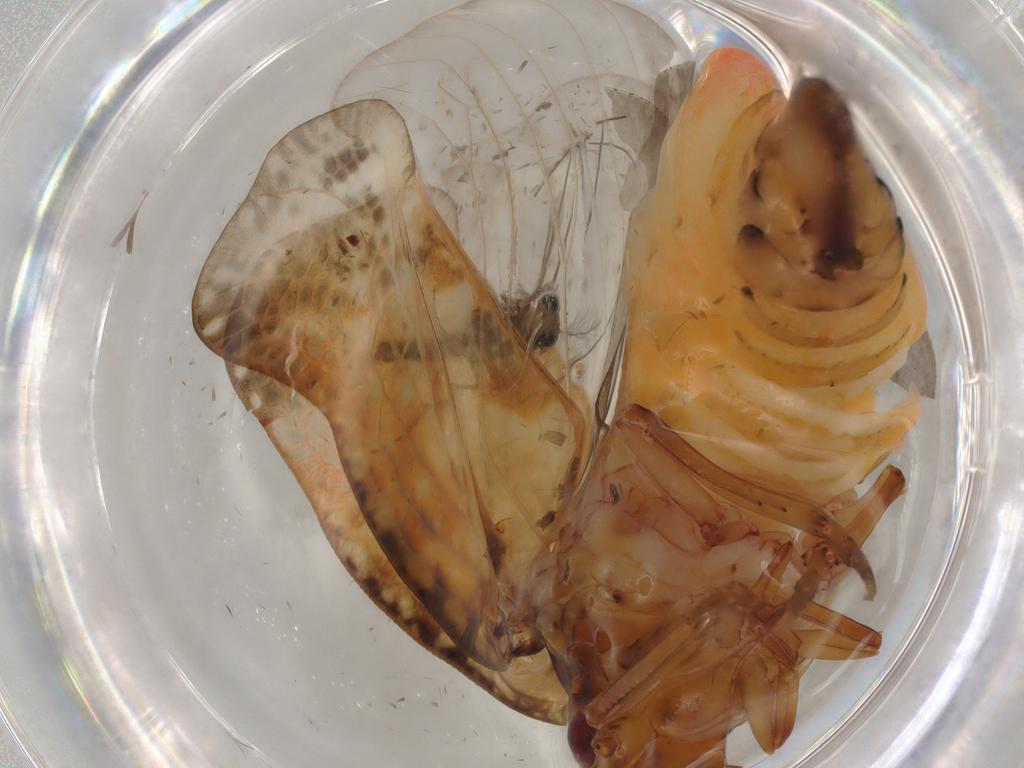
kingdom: Animalia
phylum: Arthropoda
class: Insecta
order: Hemiptera
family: Flatidae
